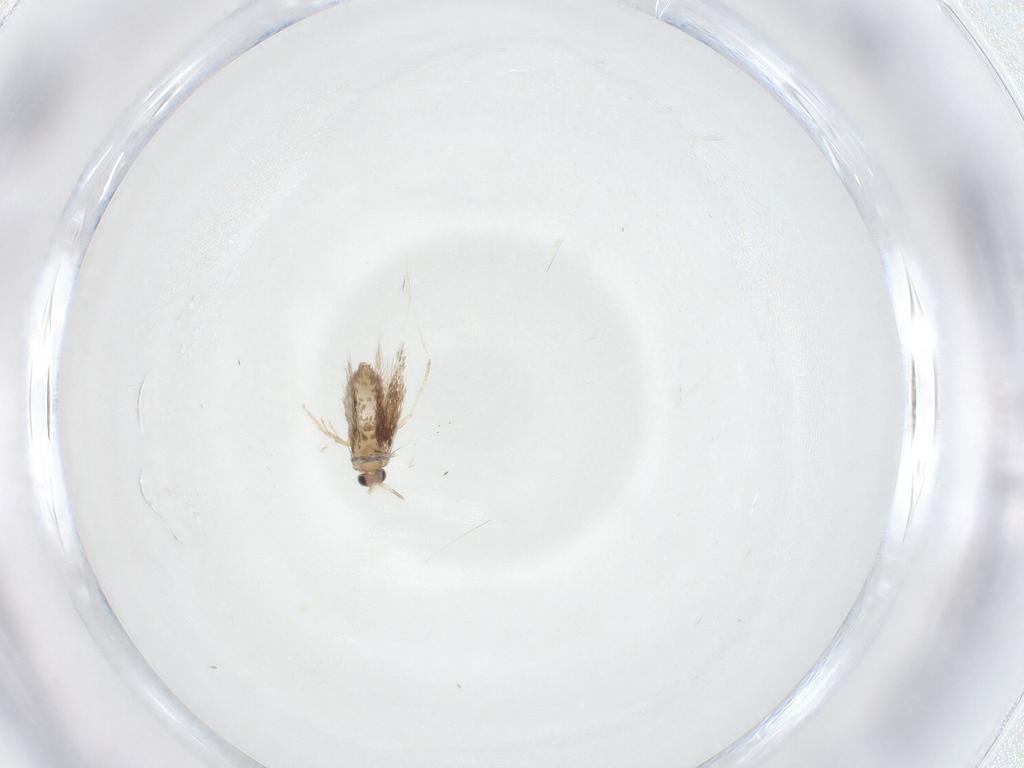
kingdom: Animalia
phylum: Arthropoda
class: Insecta
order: Lepidoptera
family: Nepticulidae
